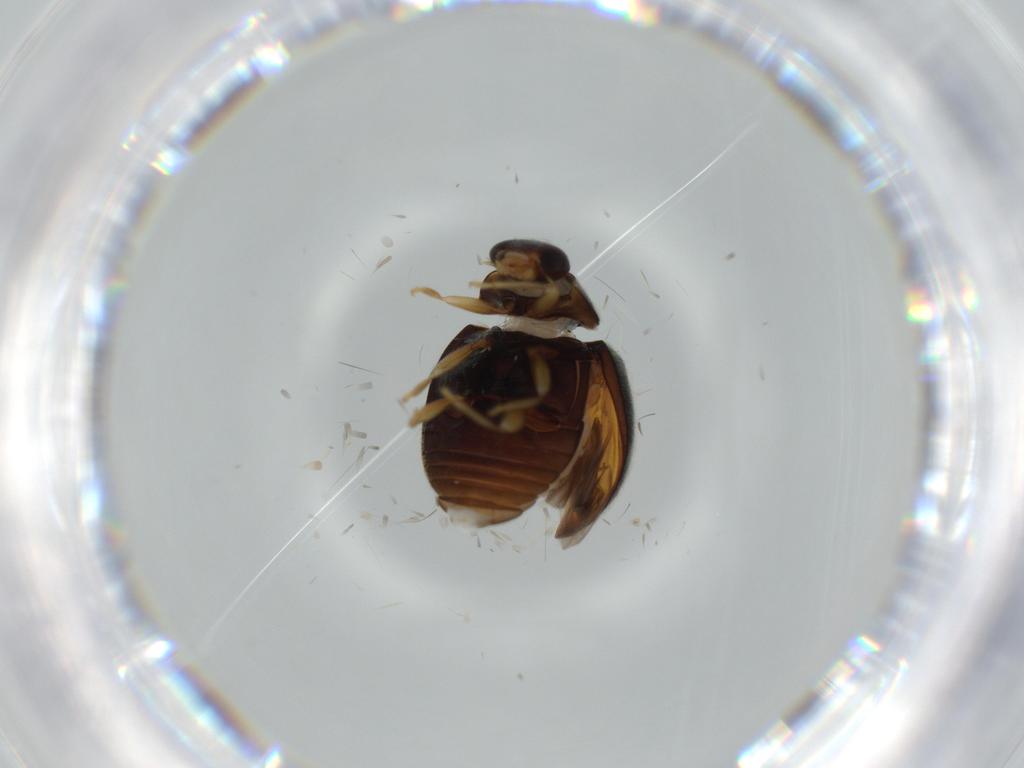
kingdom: Animalia
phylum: Arthropoda
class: Insecta
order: Coleoptera
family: Coccinellidae
